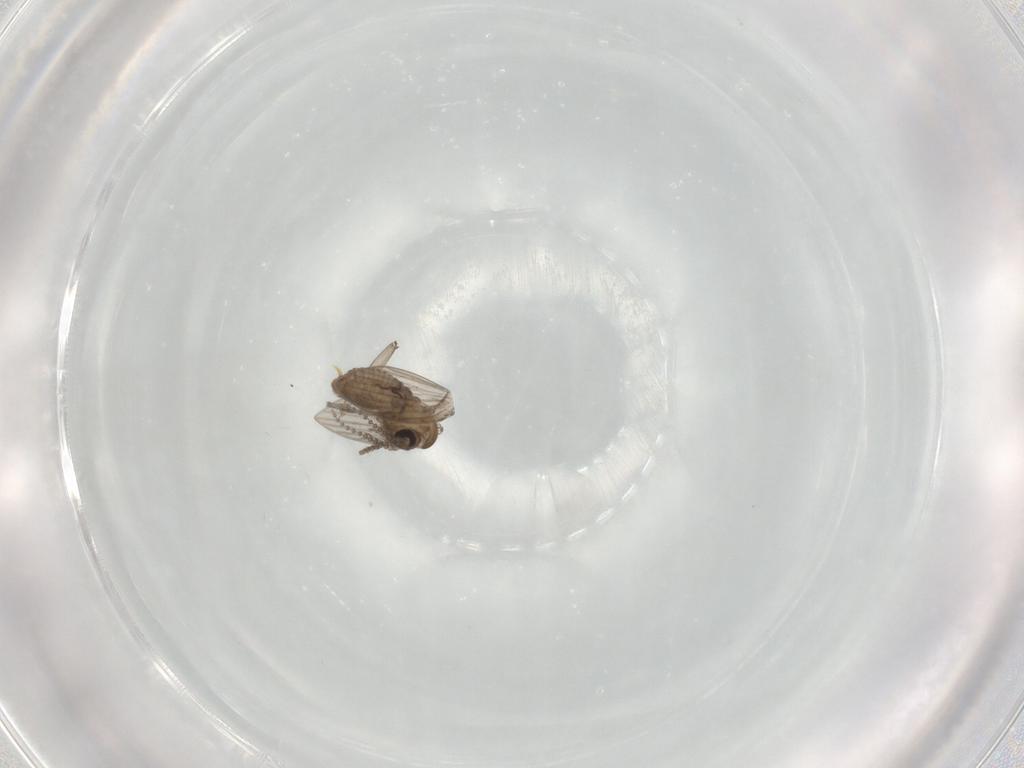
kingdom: Animalia
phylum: Arthropoda
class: Insecta
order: Diptera
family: Psychodidae
